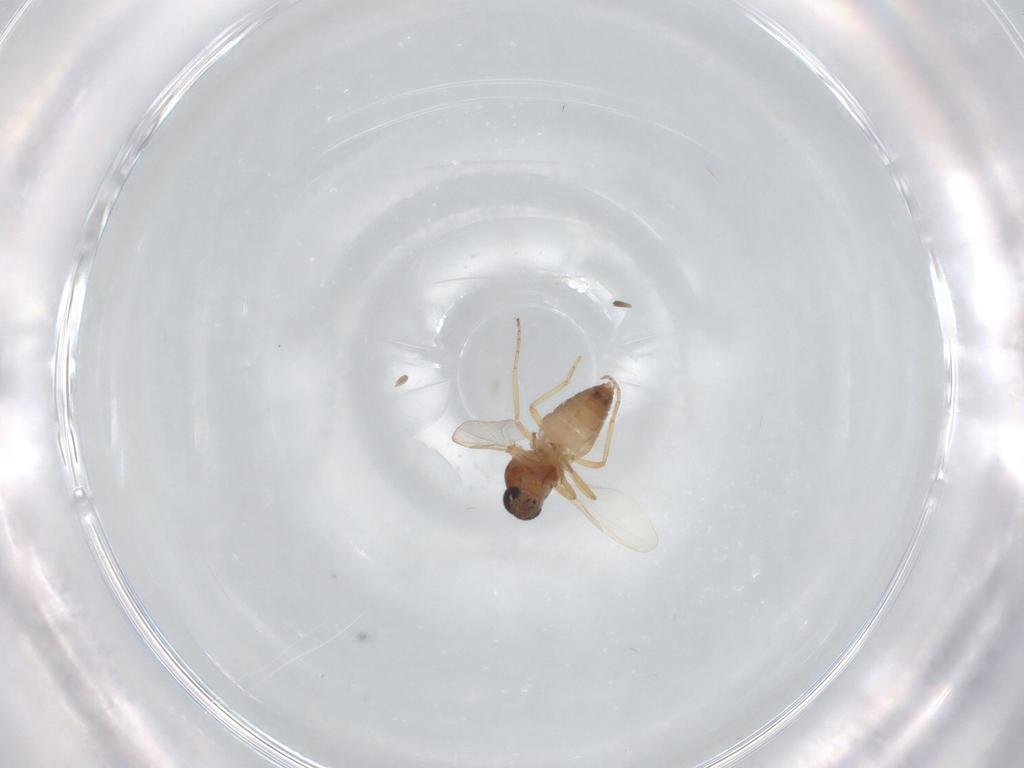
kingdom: Animalia
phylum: Arthropoda
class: Insecta
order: Diptera
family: Ceratopogonidae
